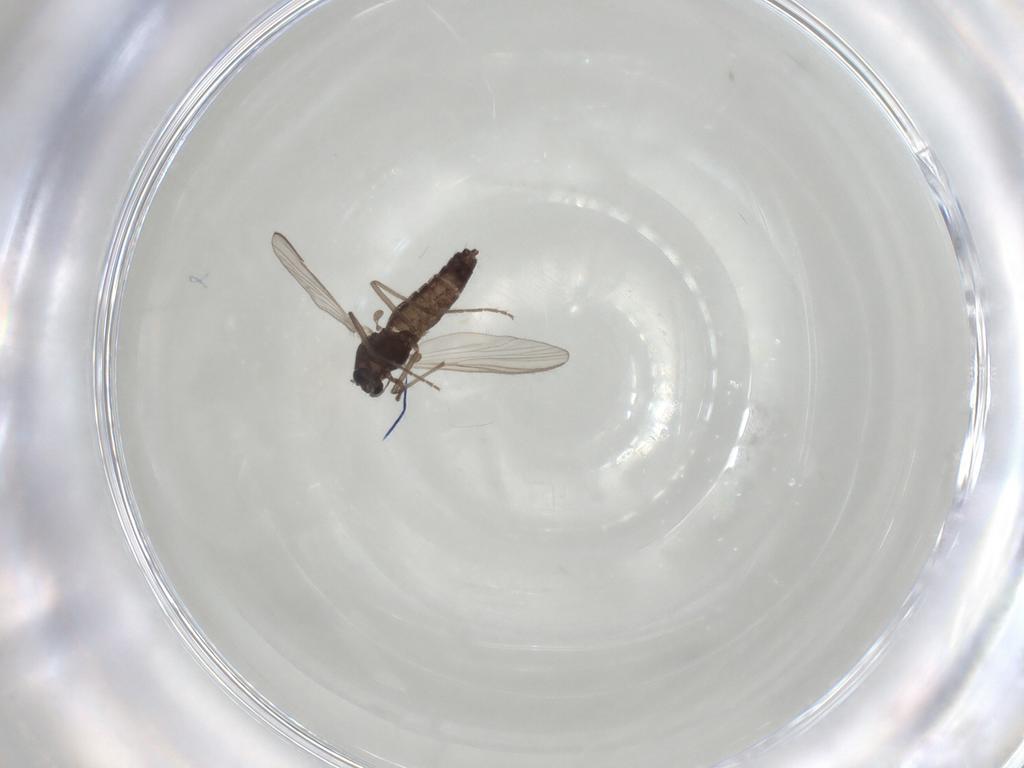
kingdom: Animalia
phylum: Arthropoda
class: Insecta
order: Diptera
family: Chironomidae
